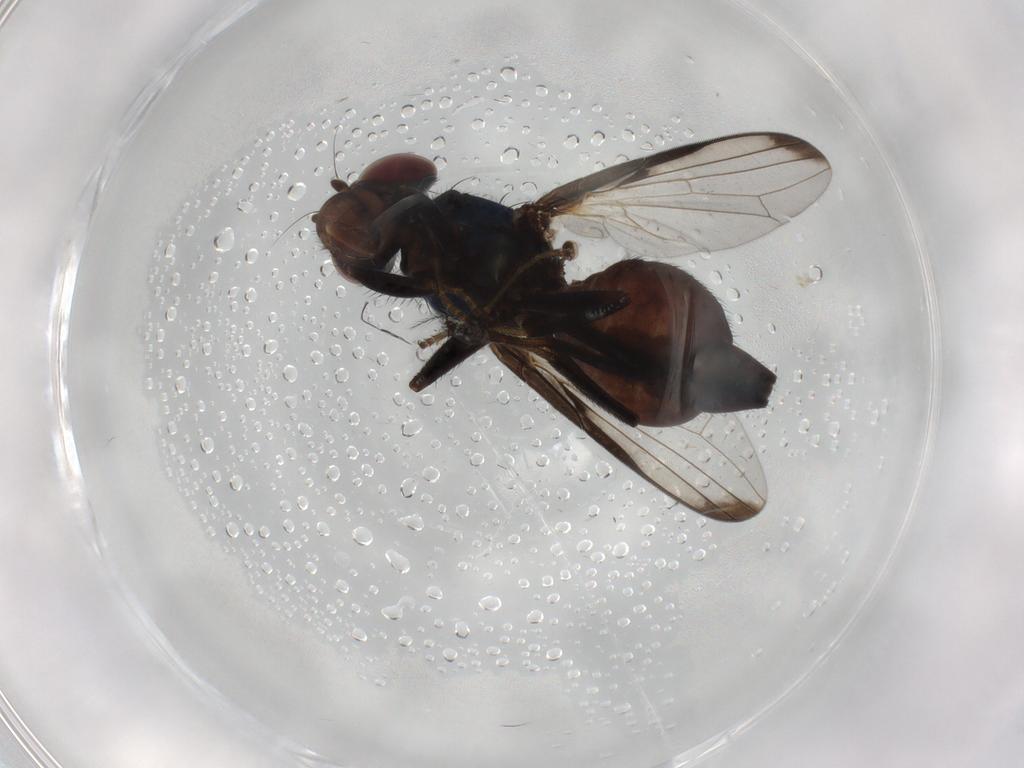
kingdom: Animalia
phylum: Arthropoda
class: Insecta
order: Diptera
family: Ulidiidae
